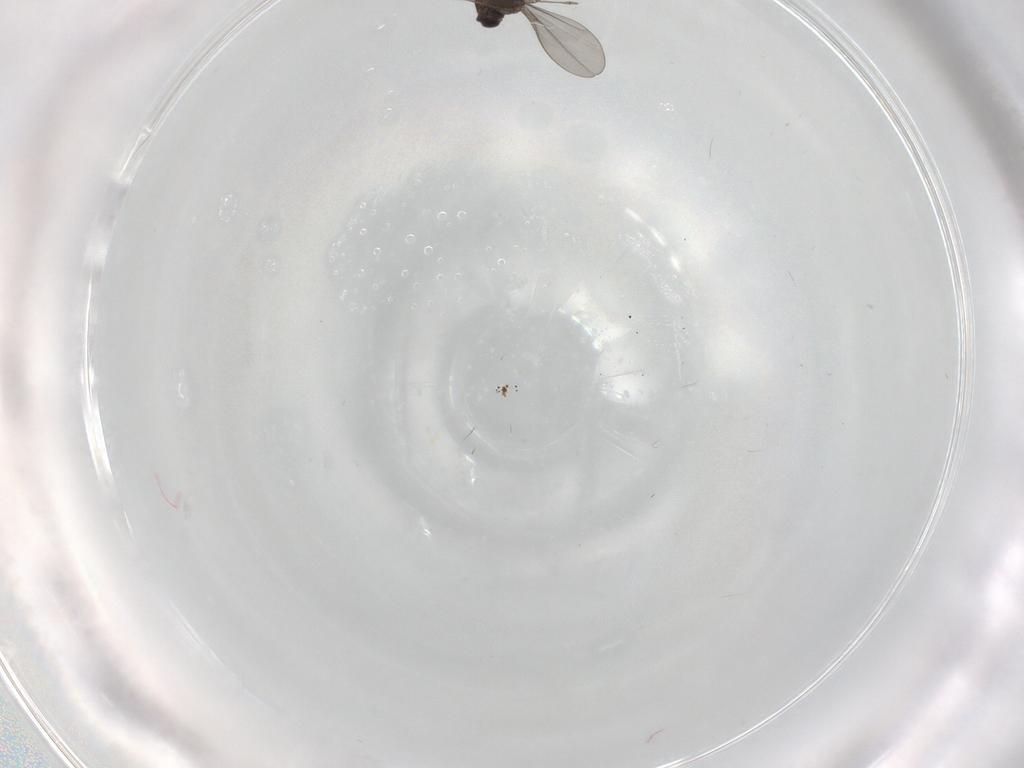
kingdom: Animalia
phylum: Arthropoda
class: Insecta
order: Diptera
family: Cecidomyiidae
